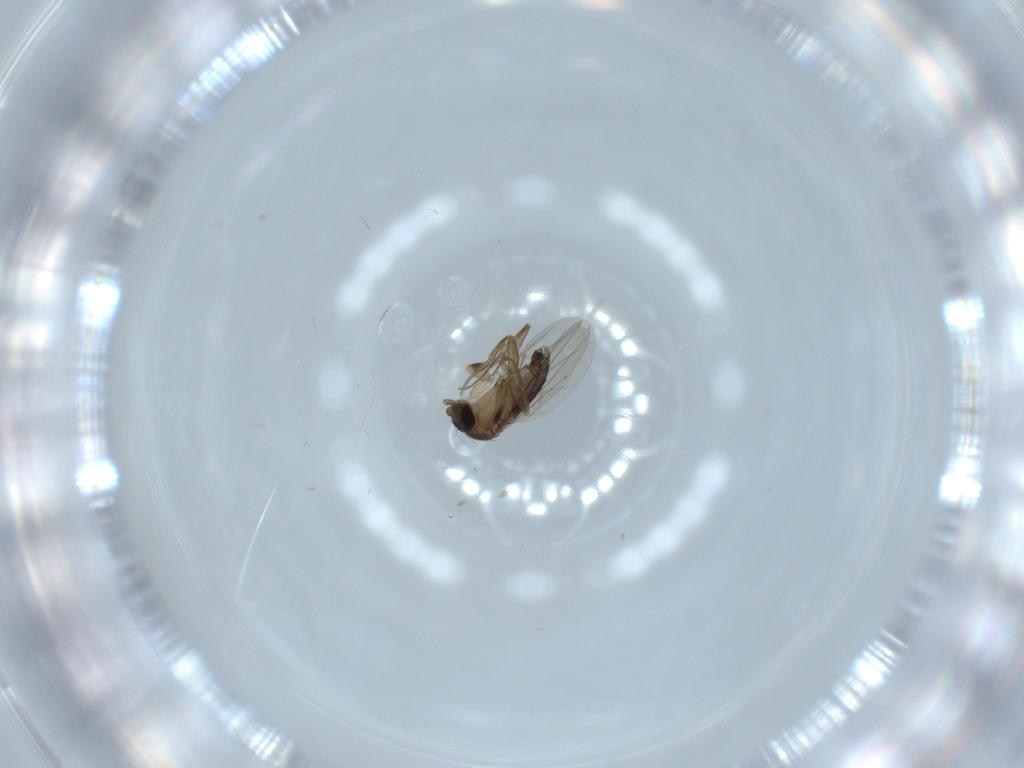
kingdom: Animalia
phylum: Arthropoda
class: Insecta
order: Diptera
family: Phoridae
